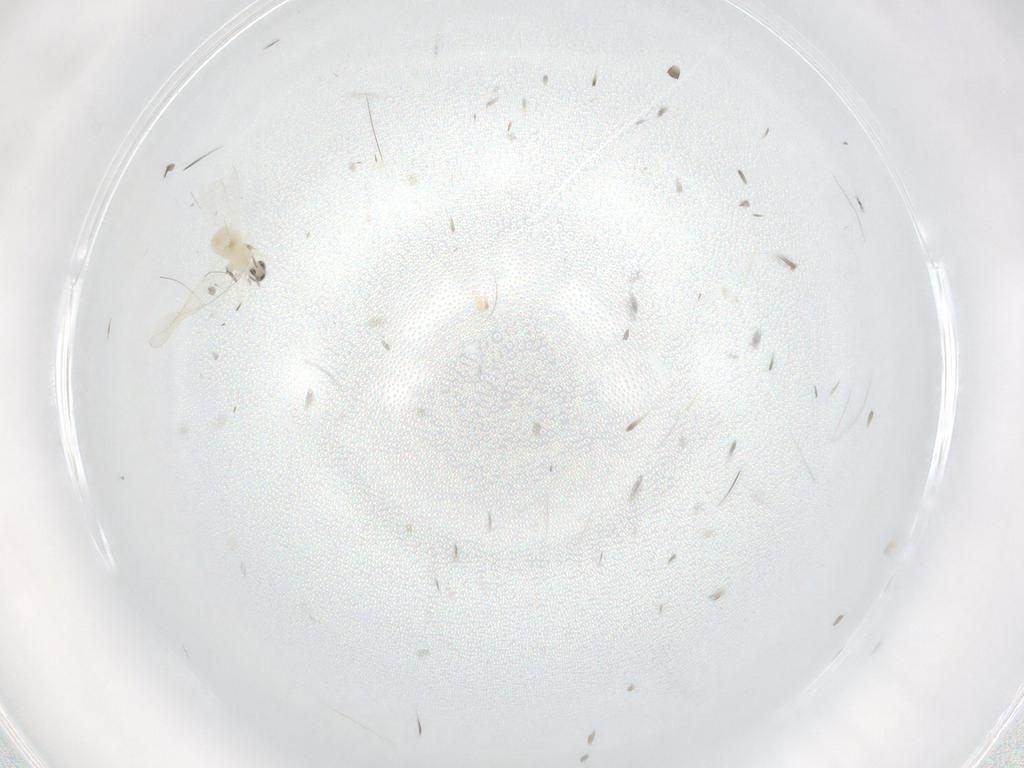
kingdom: Animalia
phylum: Arthropoda
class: Insecta
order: Diptera
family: Cecidomyiidae
